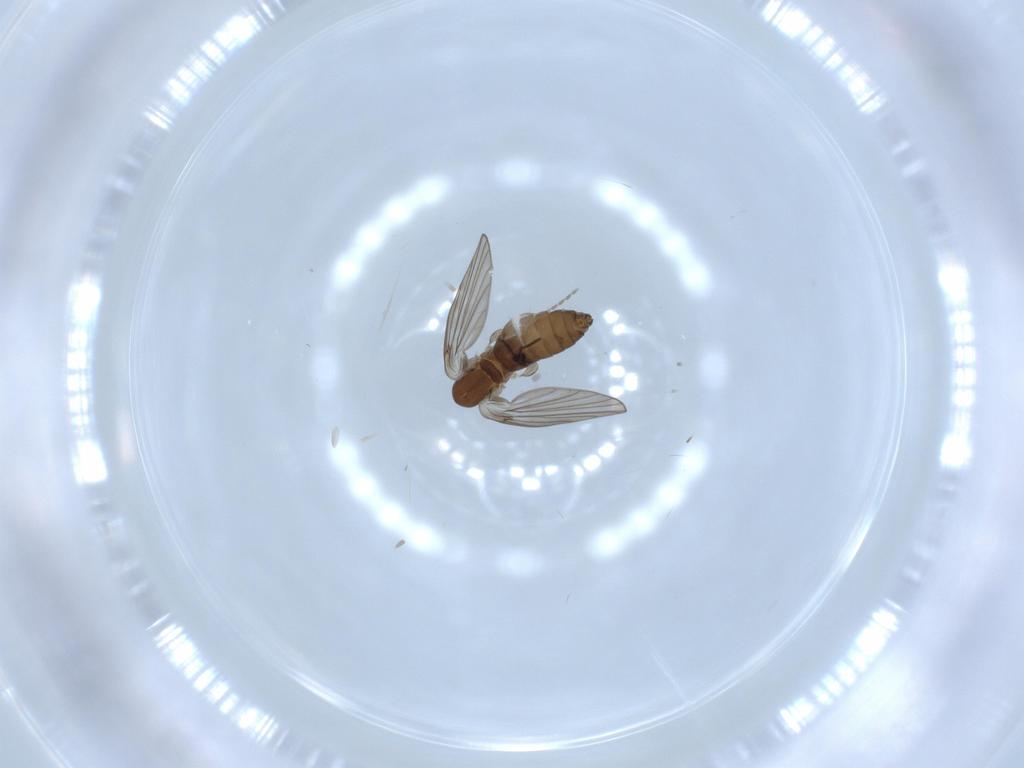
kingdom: Animalia
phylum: Arthropoda
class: Insecta
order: Diptera
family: Psychodidae
